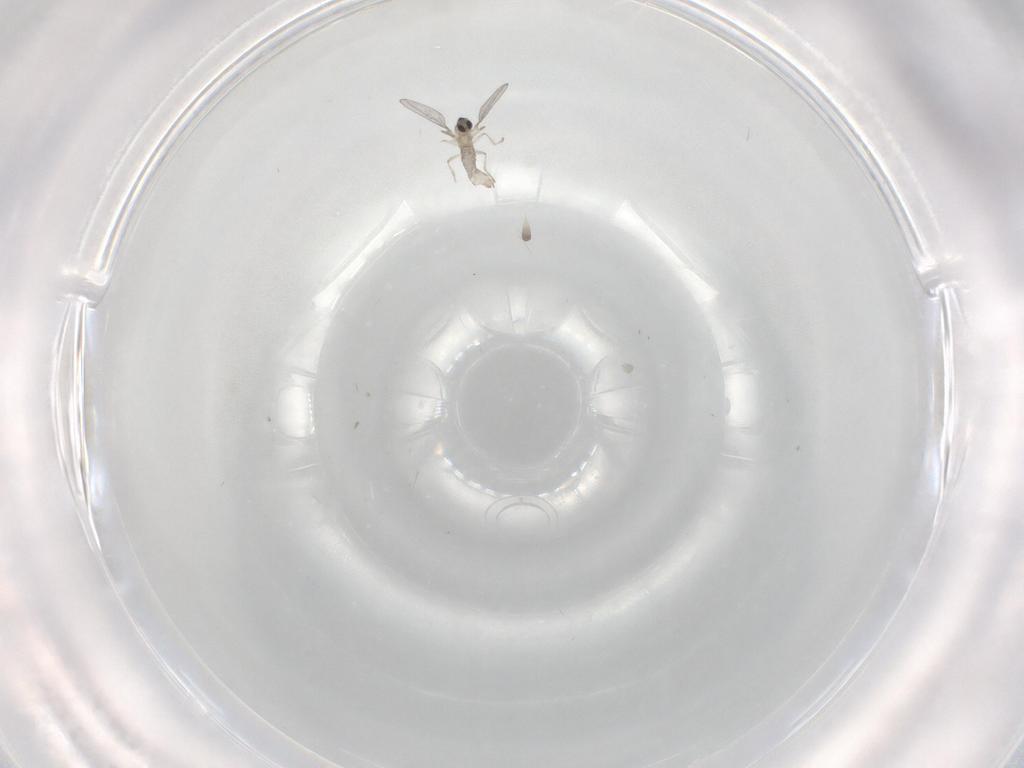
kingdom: Animalia
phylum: Arthropoda
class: Insecta
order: Diptera
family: Cecidomyiidae
